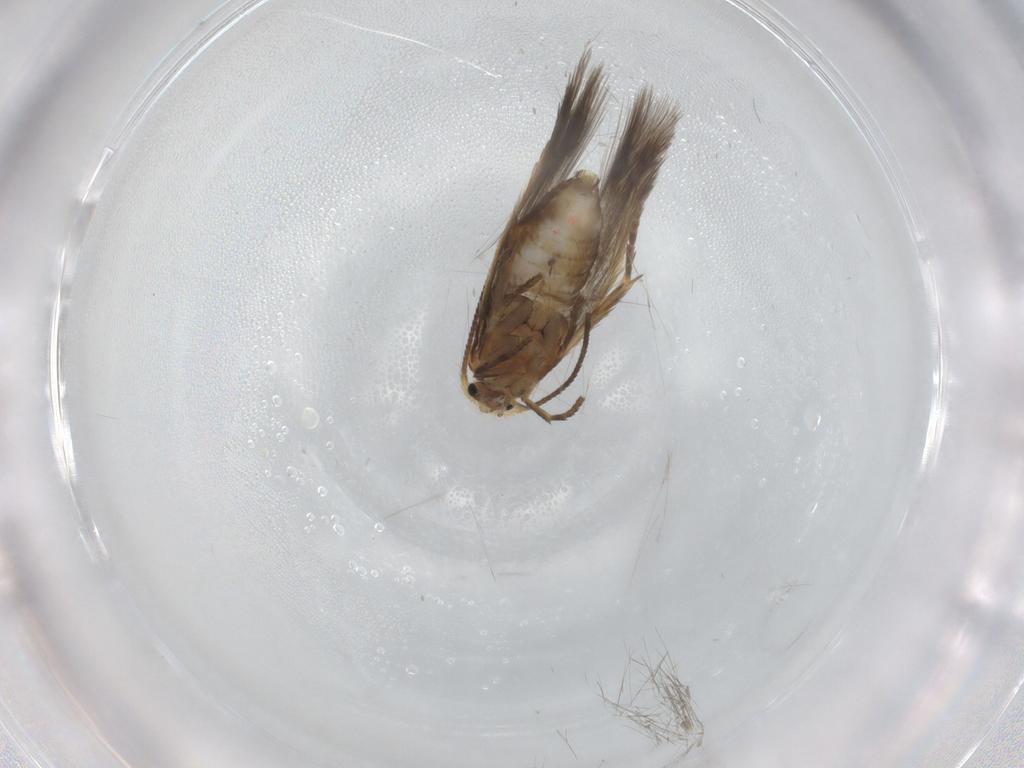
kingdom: Animalia
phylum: Arthropoda
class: Insecta
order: Lepidoptera
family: Nepticulidae
